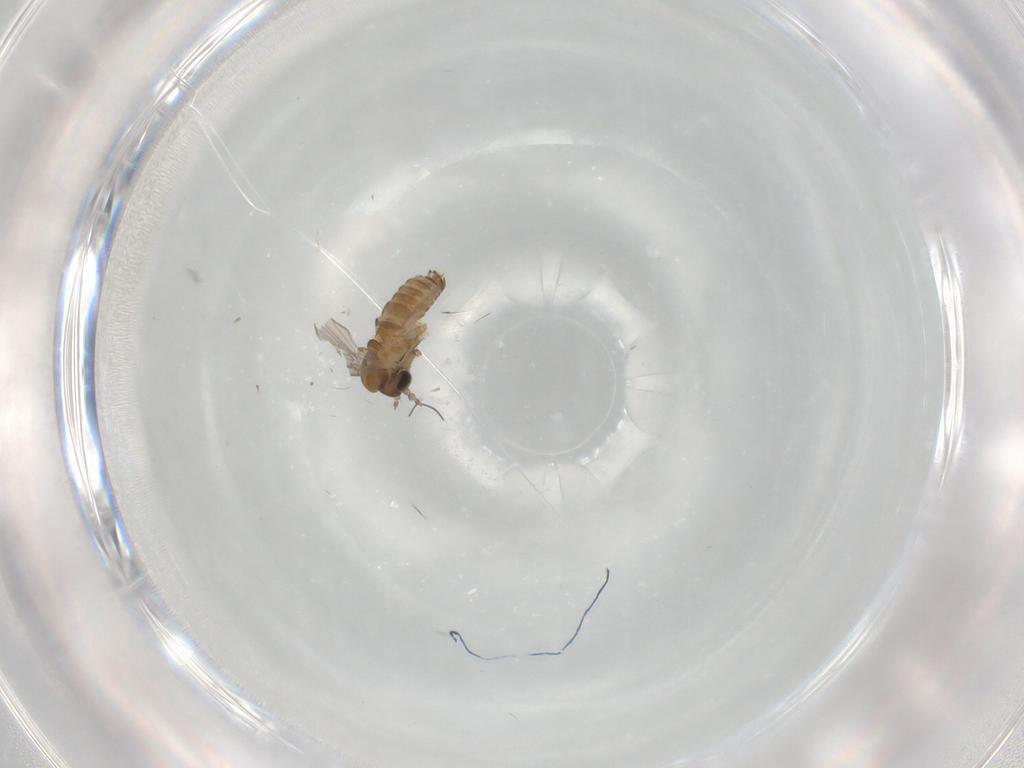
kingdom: Animalia
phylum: Arthropoda
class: Insecta
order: Diptera
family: Psychodidae
